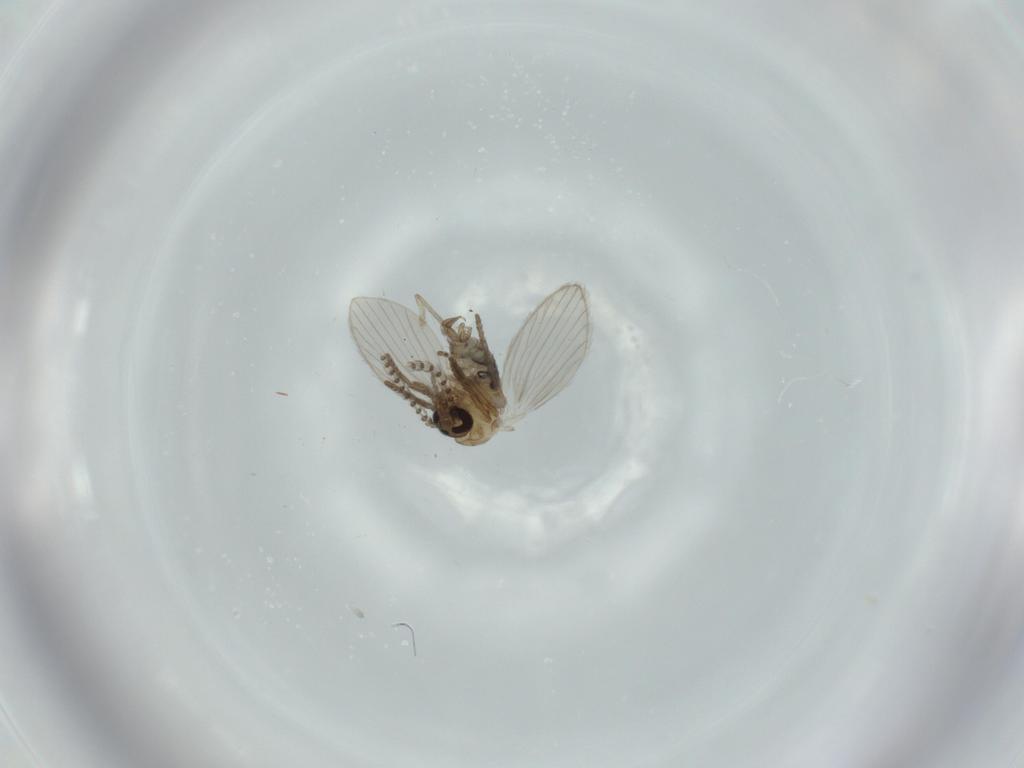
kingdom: Animalia
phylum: Arthropoda
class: Insecta
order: Diptera
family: Psychodidae
